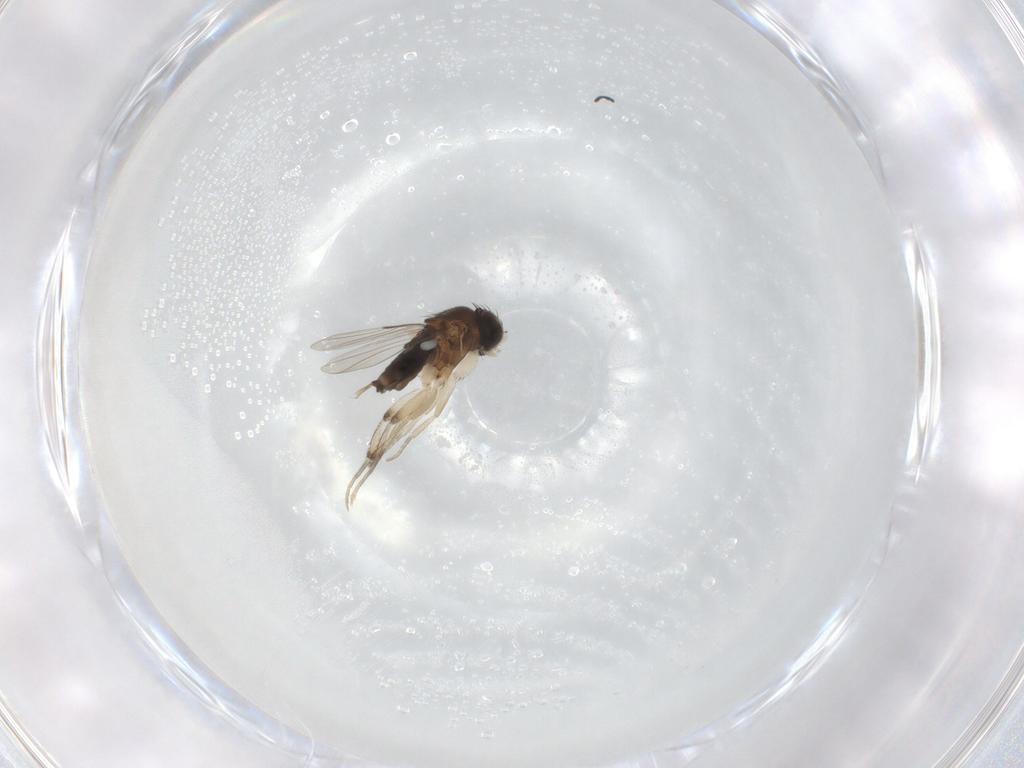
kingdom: Animalia
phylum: Arthropoda
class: Insecta
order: Diptera
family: Phoridae
